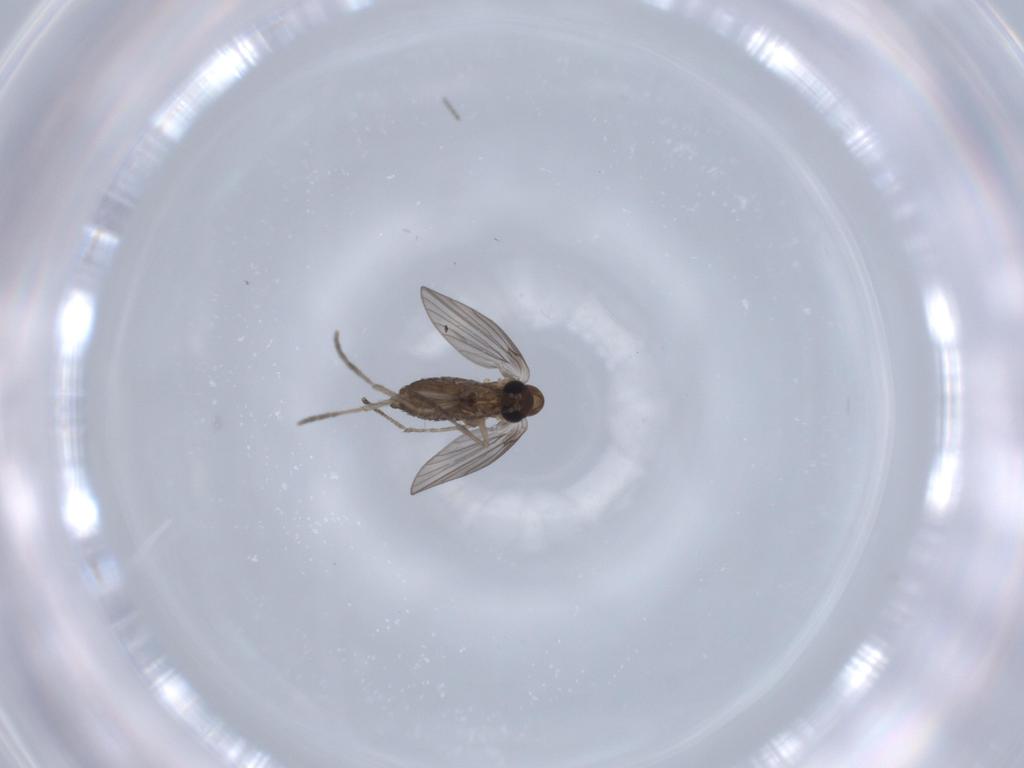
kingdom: Animalia
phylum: Arthropoda
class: Insecta
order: Diptera
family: Psychodidae
